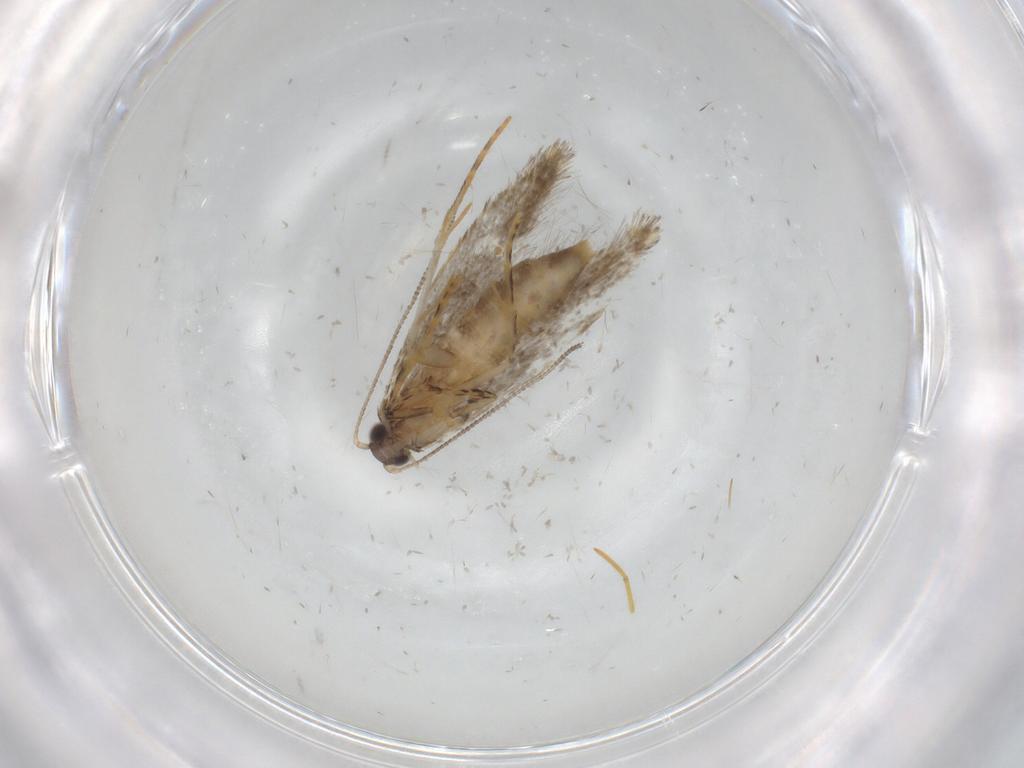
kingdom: Animalia
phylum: Arthropoda
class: Insecta
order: Lepidoptera
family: Tineidae
